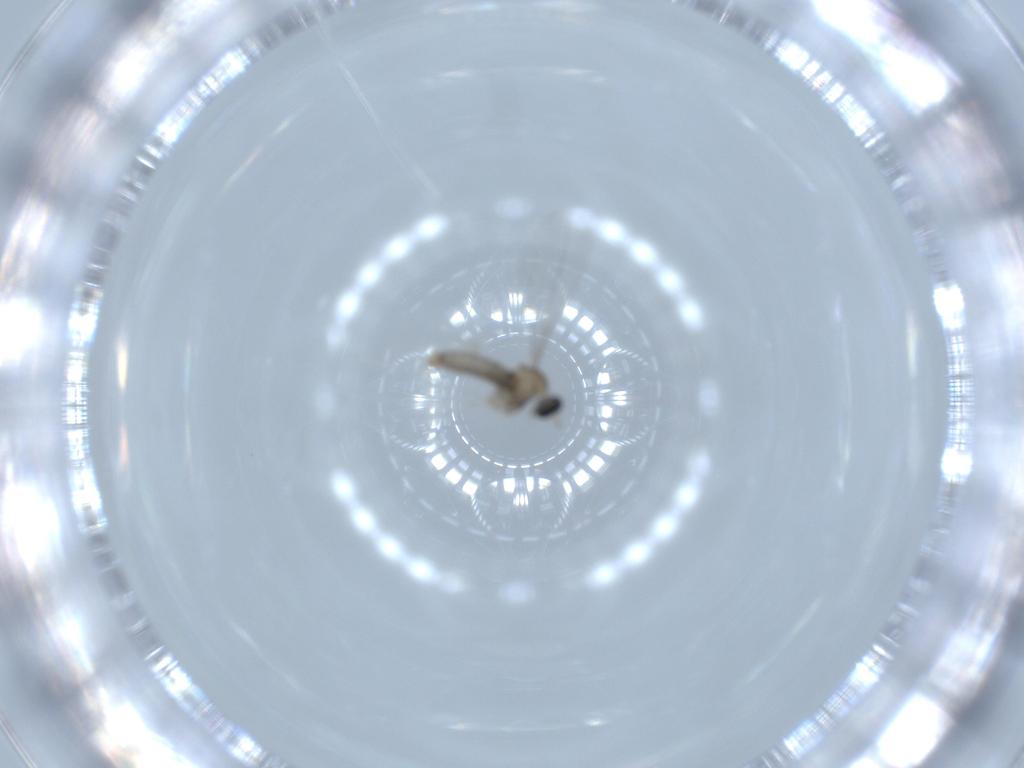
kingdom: Animalia
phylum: Arthropoda
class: Insecta
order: Diptera
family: Cecidomyiidae
